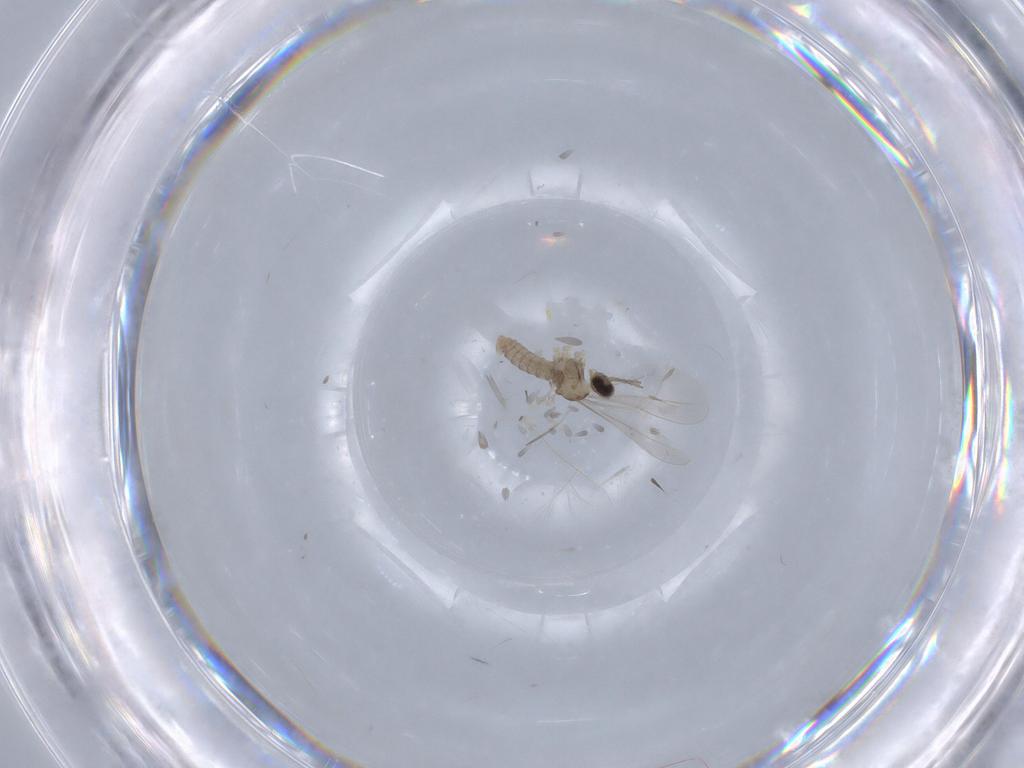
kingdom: Animalia
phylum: Arthropoda
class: Insecta
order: Diptera
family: Cecidomyiidae
